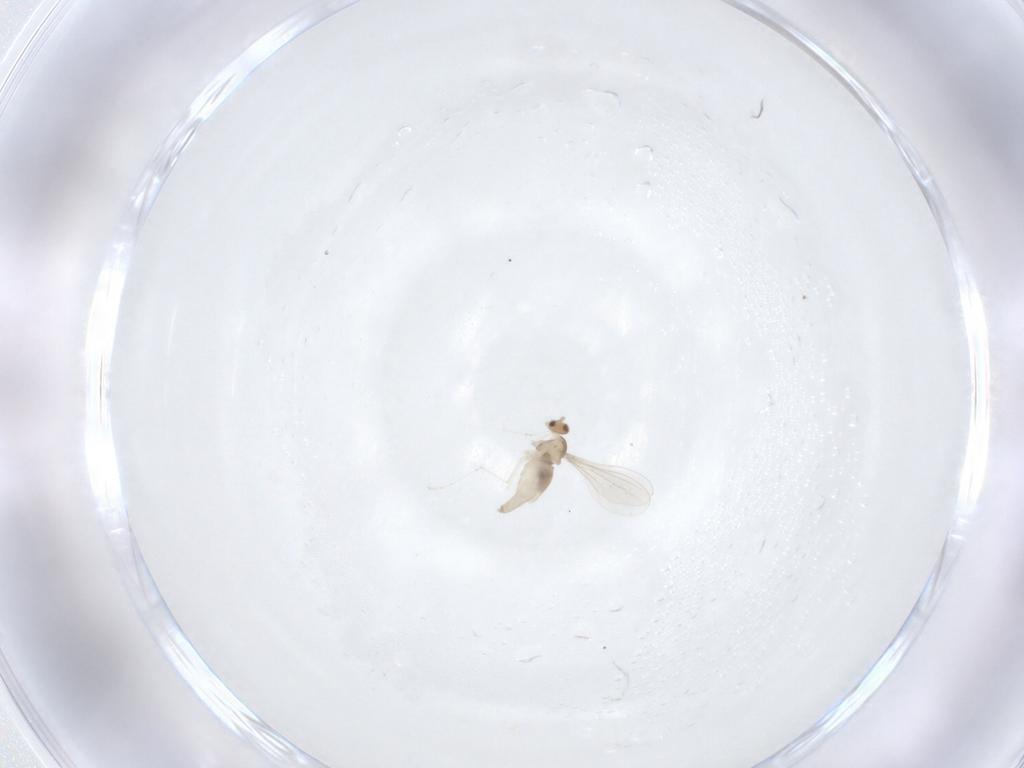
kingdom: Animalia
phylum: Arthropoda
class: Insecta
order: Diptera
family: Cecidomyiidae
